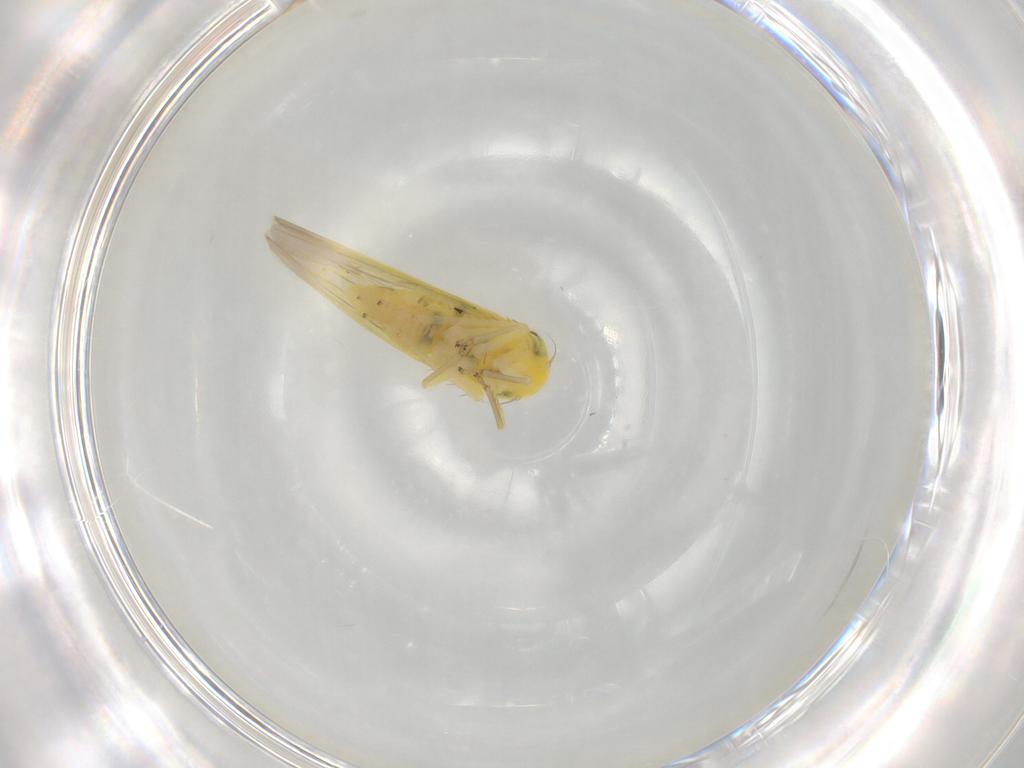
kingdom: Animalia
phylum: Arthropoda
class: Insecta
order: Hemiptera
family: Cicadellidae
